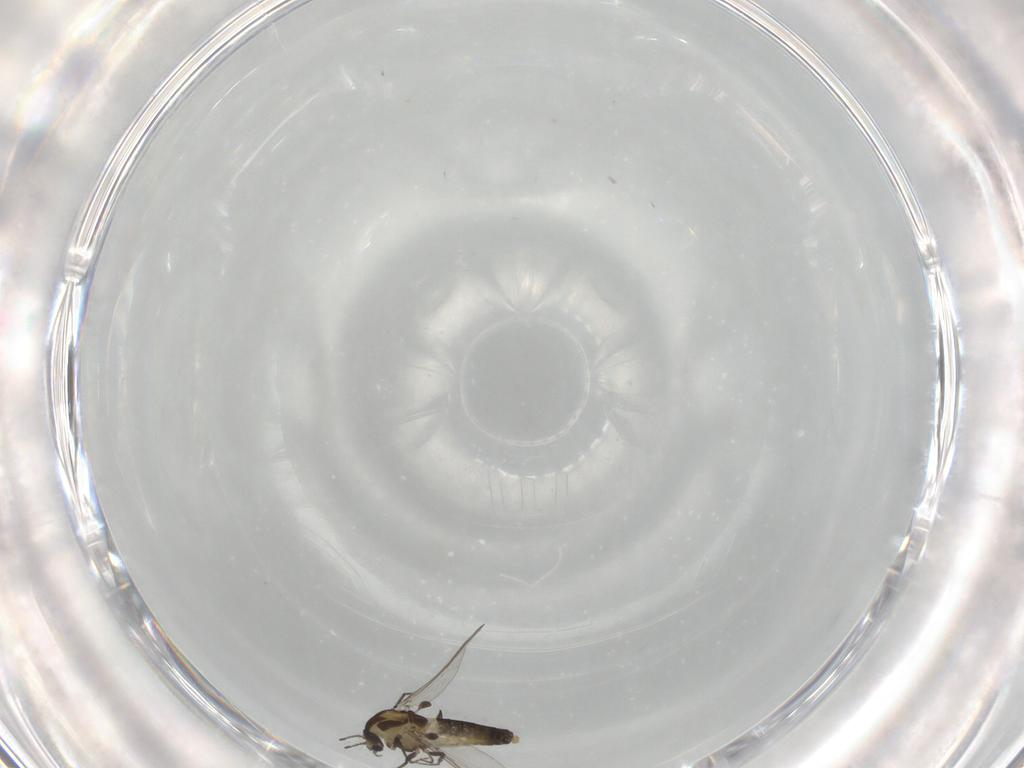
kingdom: Animalia
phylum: Arthropoda
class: Insecta
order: Diptera
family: Chironomidae
